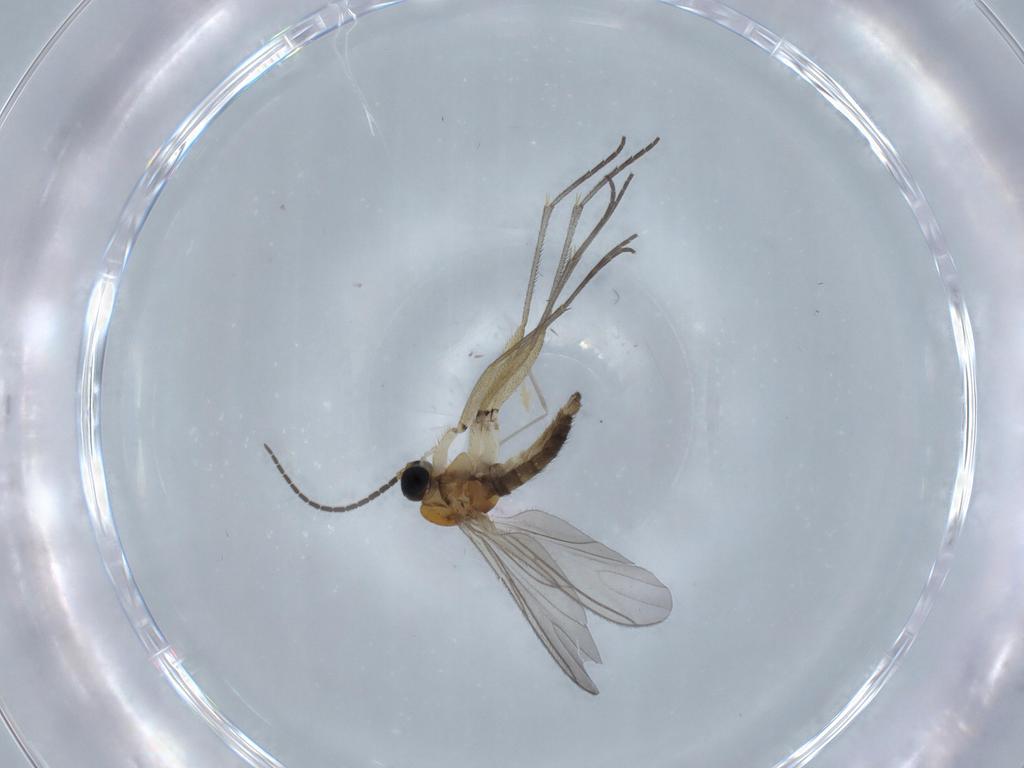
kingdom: Animalia
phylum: Arthropoda
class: Insecta
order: Diptera
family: Sciaridae
